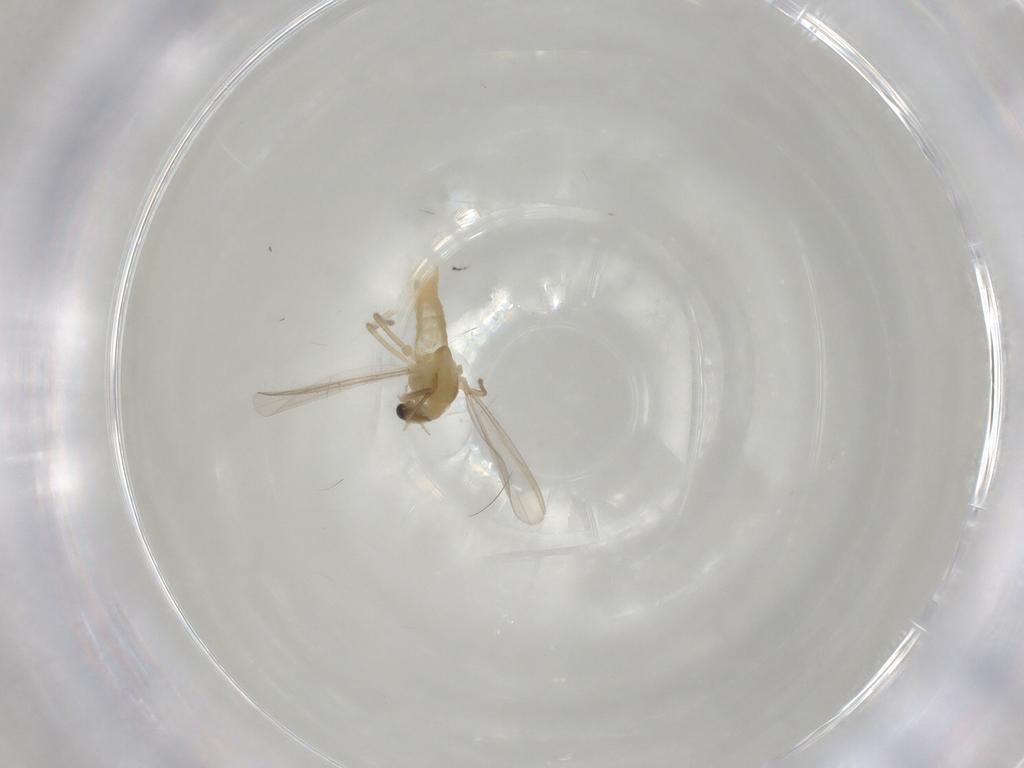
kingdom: Animalia
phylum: Arthropoda
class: Insecta
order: Diptera
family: Chironomidae
